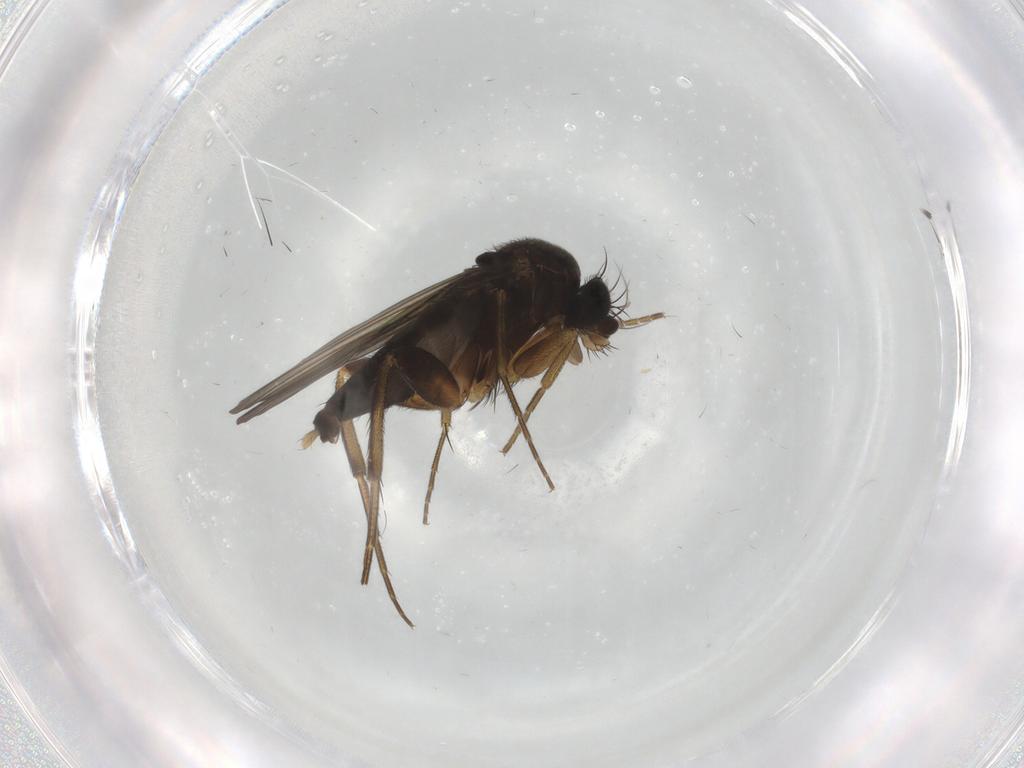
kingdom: Animalia
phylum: Arthropoda
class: Insecta
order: Diptera
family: Phoridae
